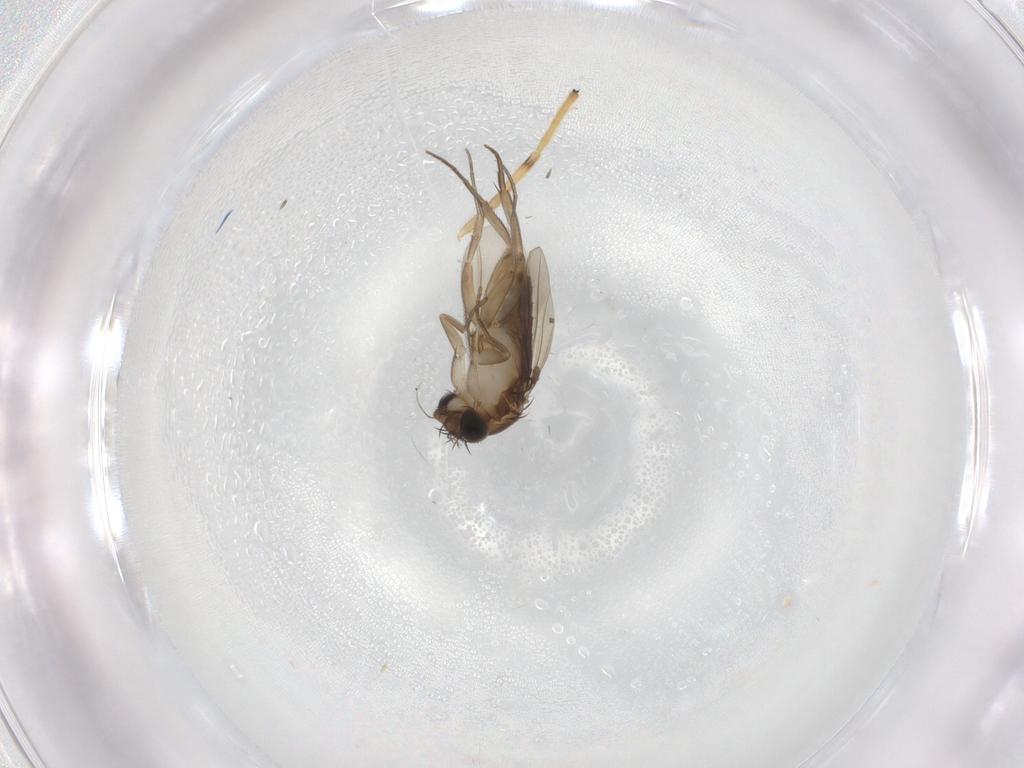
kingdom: Animalia
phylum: Arthropoda
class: Insecta
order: Diptera
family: Phoridae
